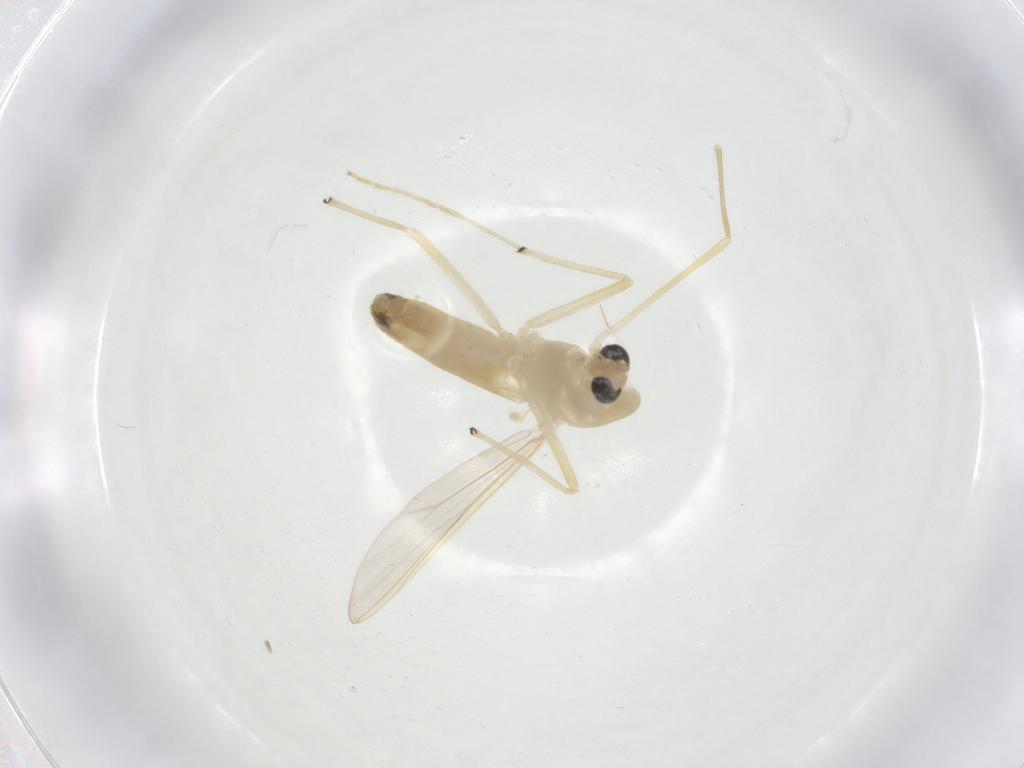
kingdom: Animalia
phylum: Arthropoda
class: Insecta
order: Diptera
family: Chironomidae
